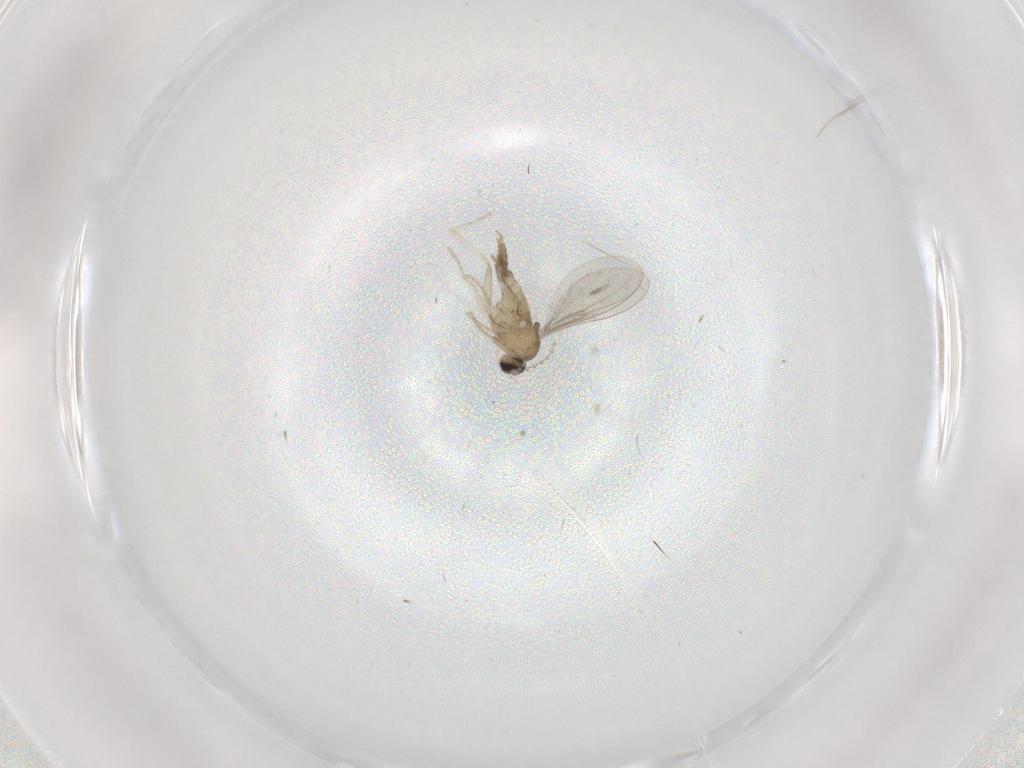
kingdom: Animalia
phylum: Arthropoda
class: Insecta
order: Diptera
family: Cecidomyiidae
